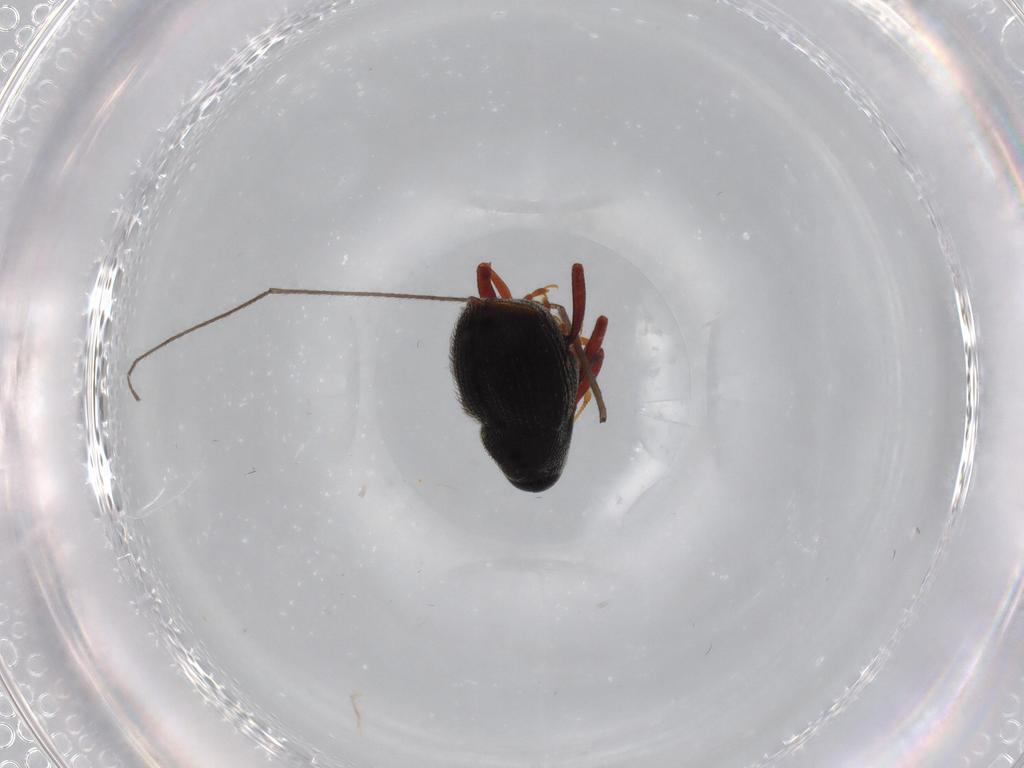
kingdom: Animalia
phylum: Arthropoda
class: Insecta
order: Coleoptera
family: Curculionidae
